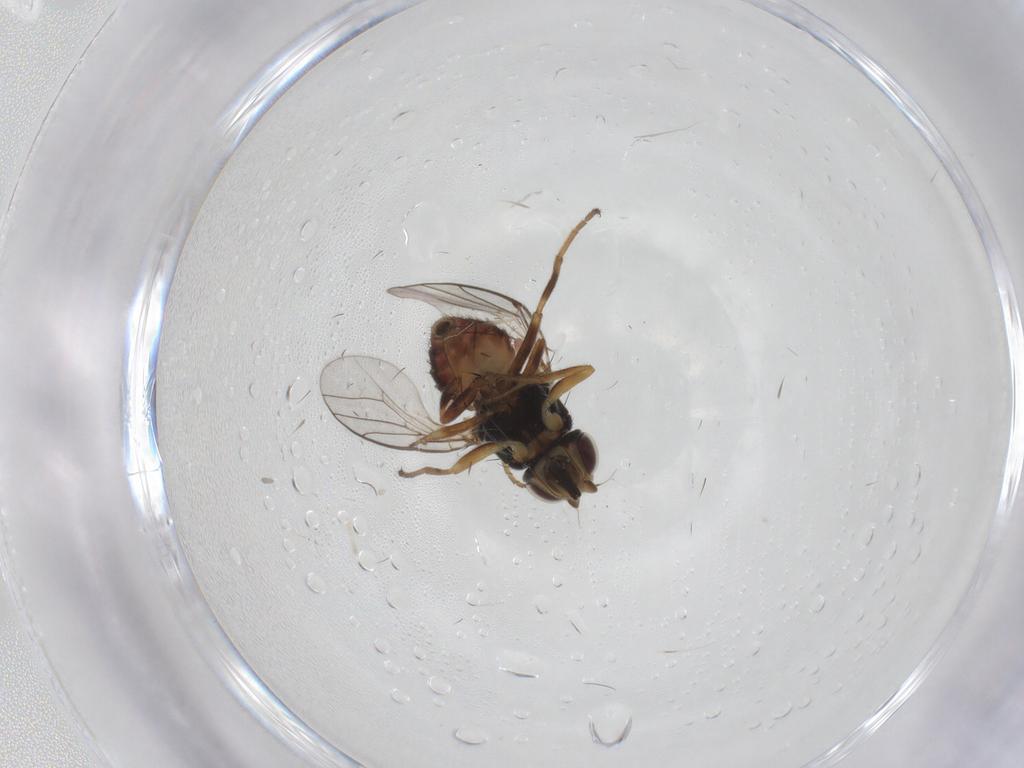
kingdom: Animalia
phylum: Arthropoda
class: Insecta
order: Diptera
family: Chloropidae
